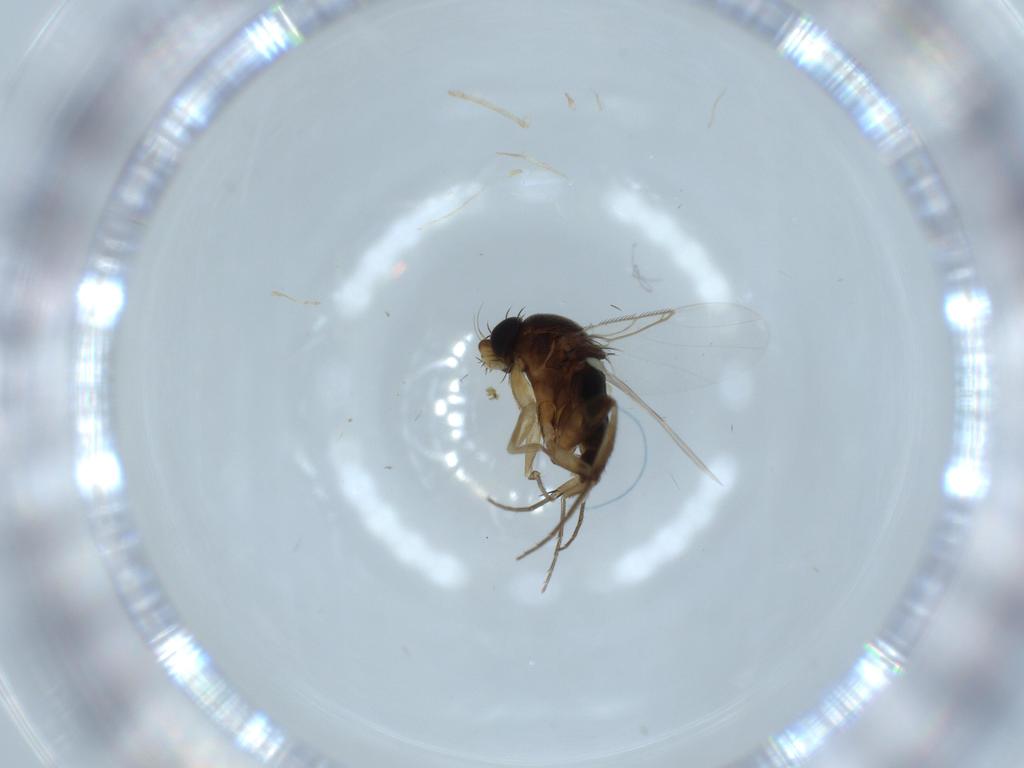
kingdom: Animalia
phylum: Arthropoda
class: Insecta
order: Diptera
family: Phoridae
